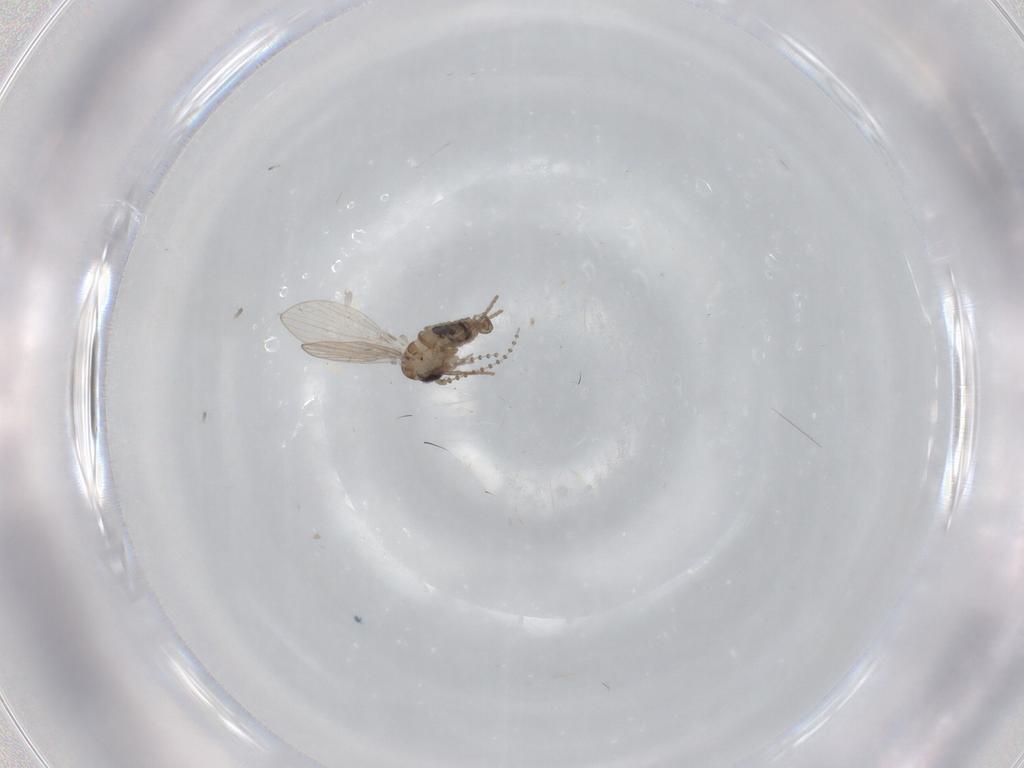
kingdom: Animalia
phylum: Arthropoda
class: Insecta
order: Diptera
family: Psychodidae
